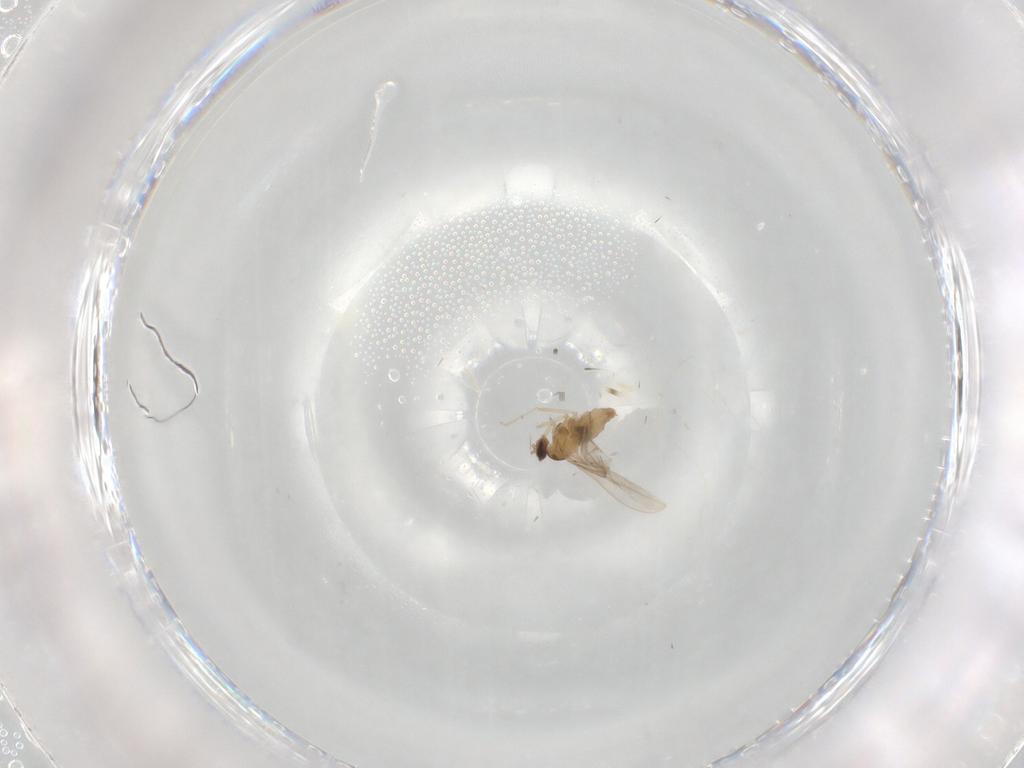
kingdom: Animalia
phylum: Arthropoda
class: Insecta
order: Diptera
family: Cecidomyiidae
